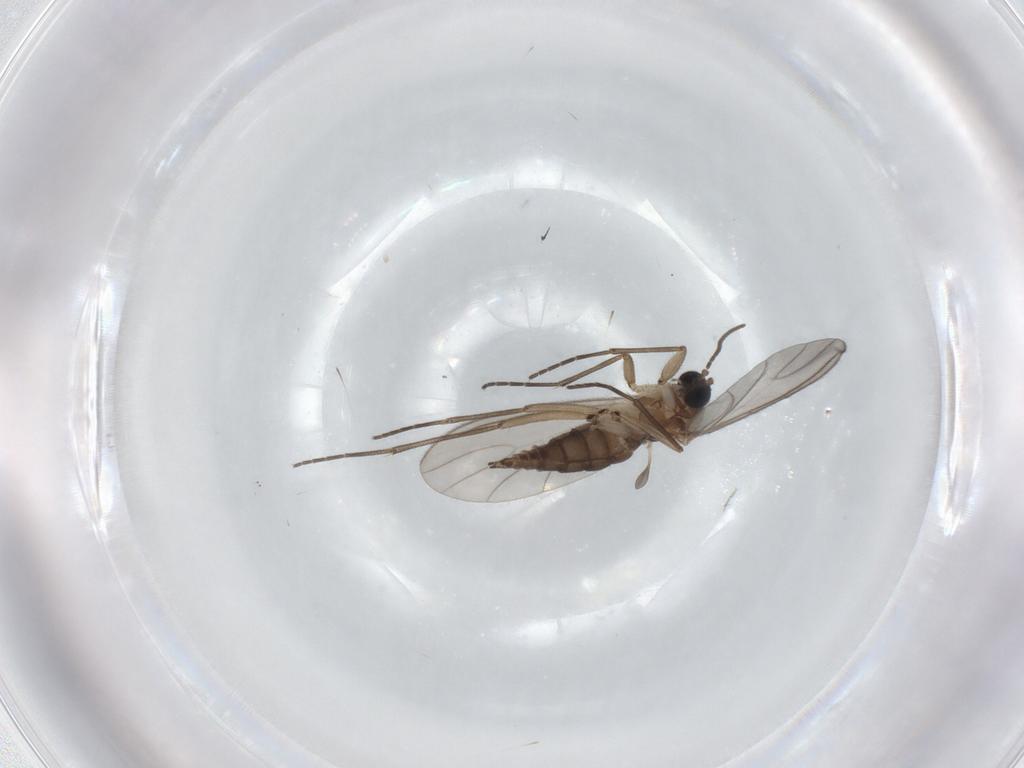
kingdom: Animalia
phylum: Arthropoda
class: Insecta
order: Diptera
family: Sciaridae
